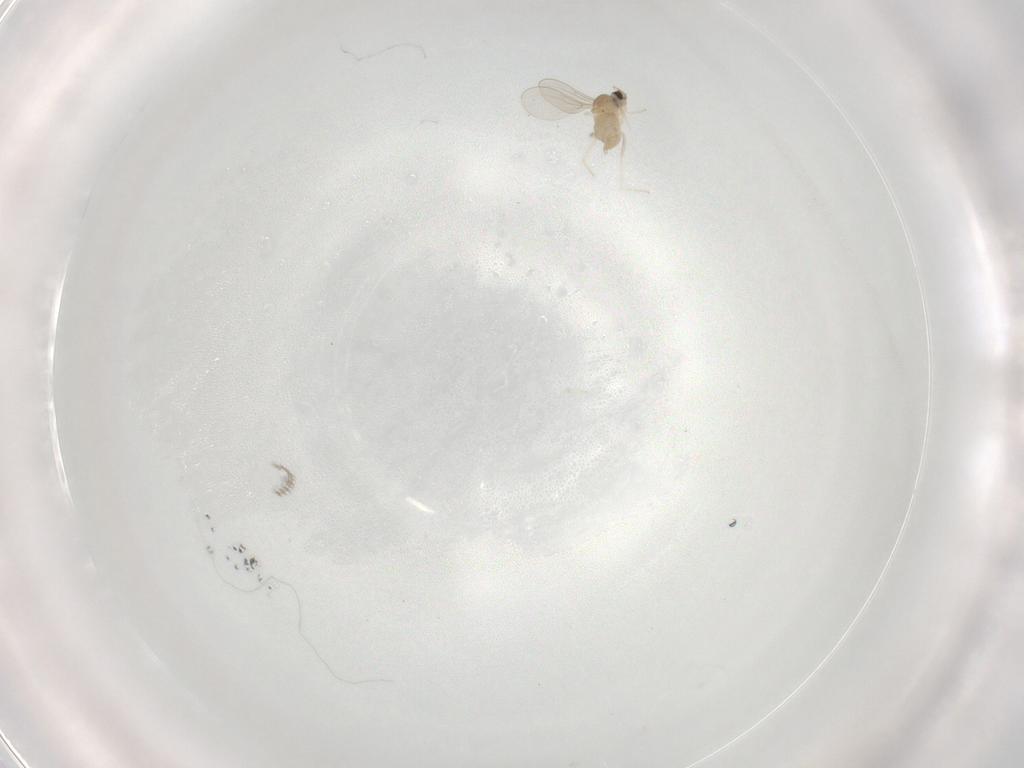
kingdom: Animalia
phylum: Arthropoda
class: Insecta
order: Diptera
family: Cecidomyiidae
